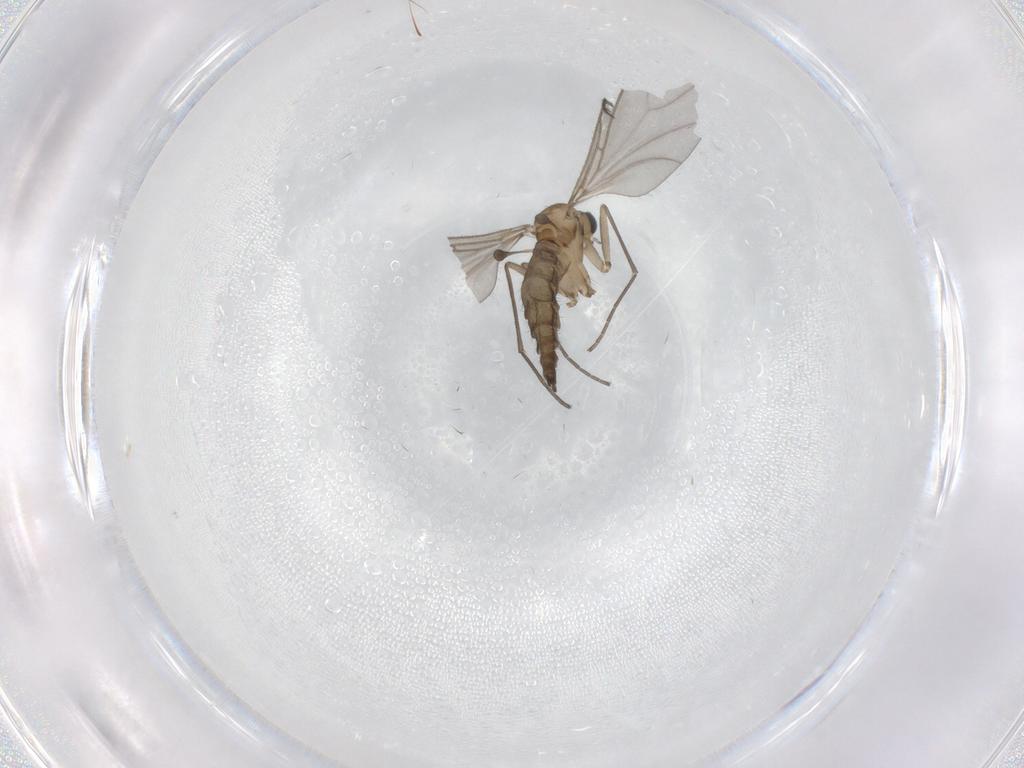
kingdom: Animalia
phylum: Arthropoda
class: Insecta
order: Diptera
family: Sciaridae
